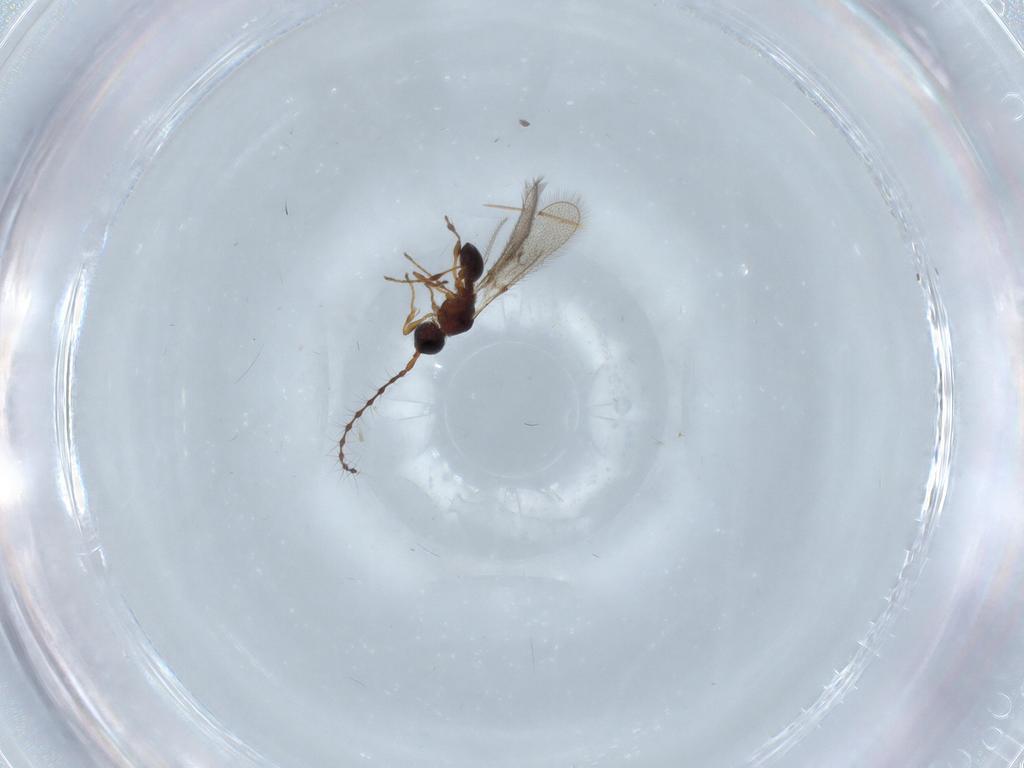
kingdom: Animalia
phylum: Arthropoda
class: Insecta
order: Hymenoptera
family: Diapriidae
